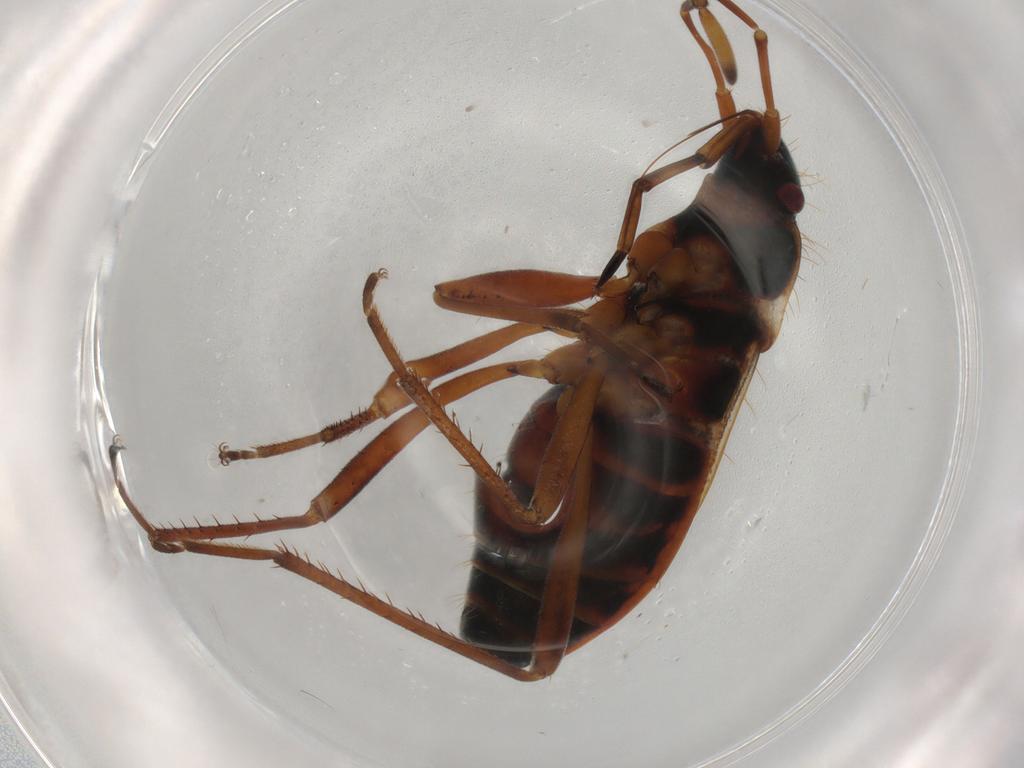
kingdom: Animalia
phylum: Arthropoda
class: Insecta
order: Hemiptera
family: Rhyparochromidae
